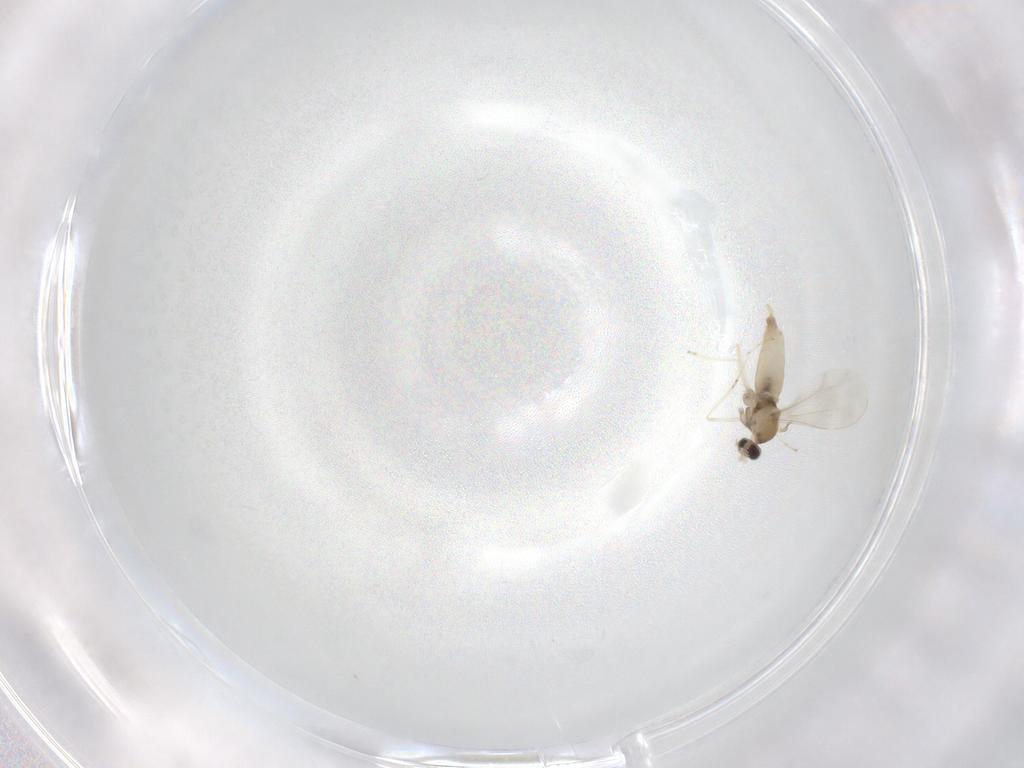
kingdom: Animalia
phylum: Arthropoda
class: Insecta
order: Diptera
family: Cecidomyiidae
